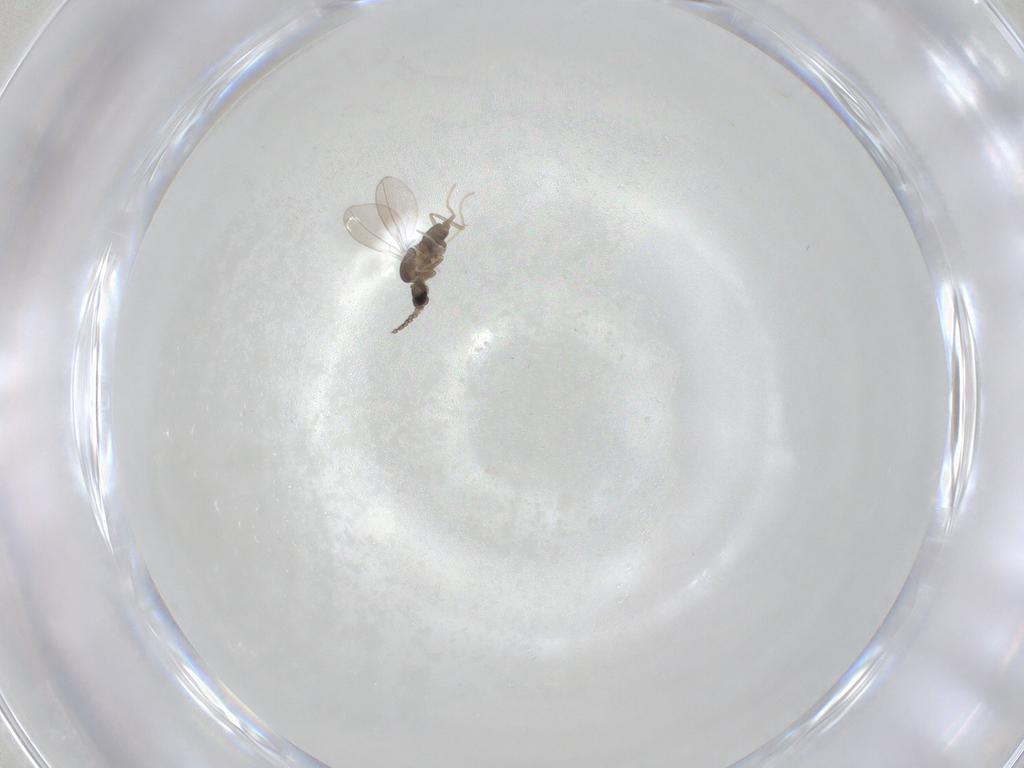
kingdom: Animalia
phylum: Arthropoda
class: Insecta
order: Diptera
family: Cecidomyiidae
